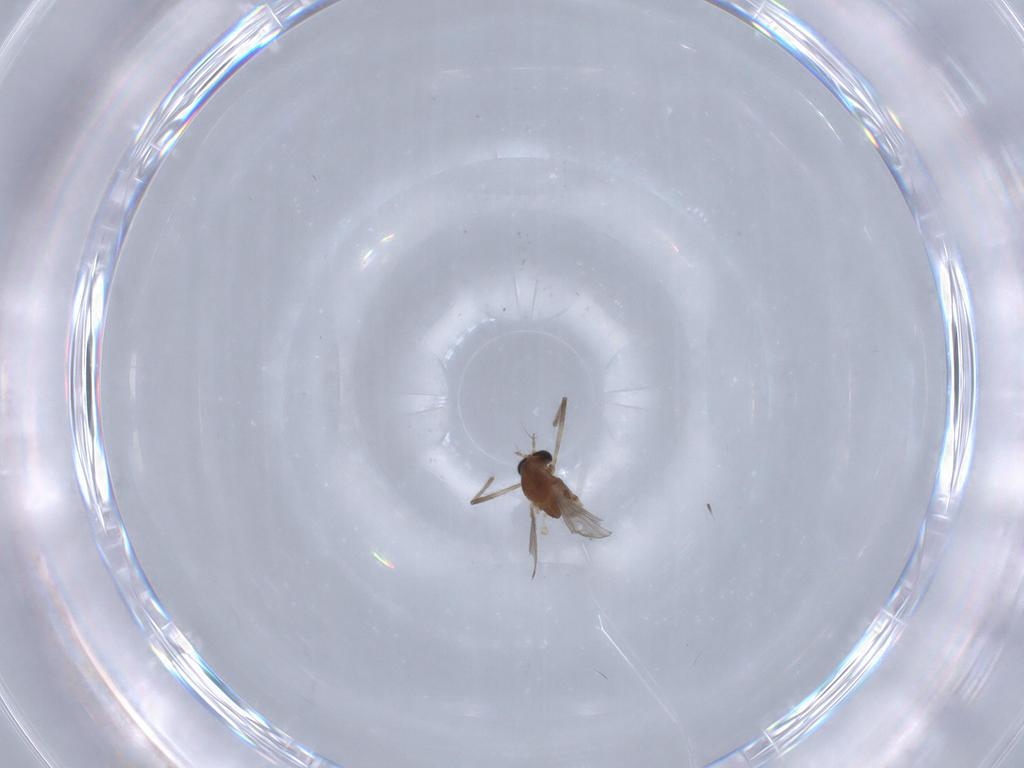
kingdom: Animalia
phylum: Arthropoda
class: Insecta
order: Diptera
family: Chironomidae
